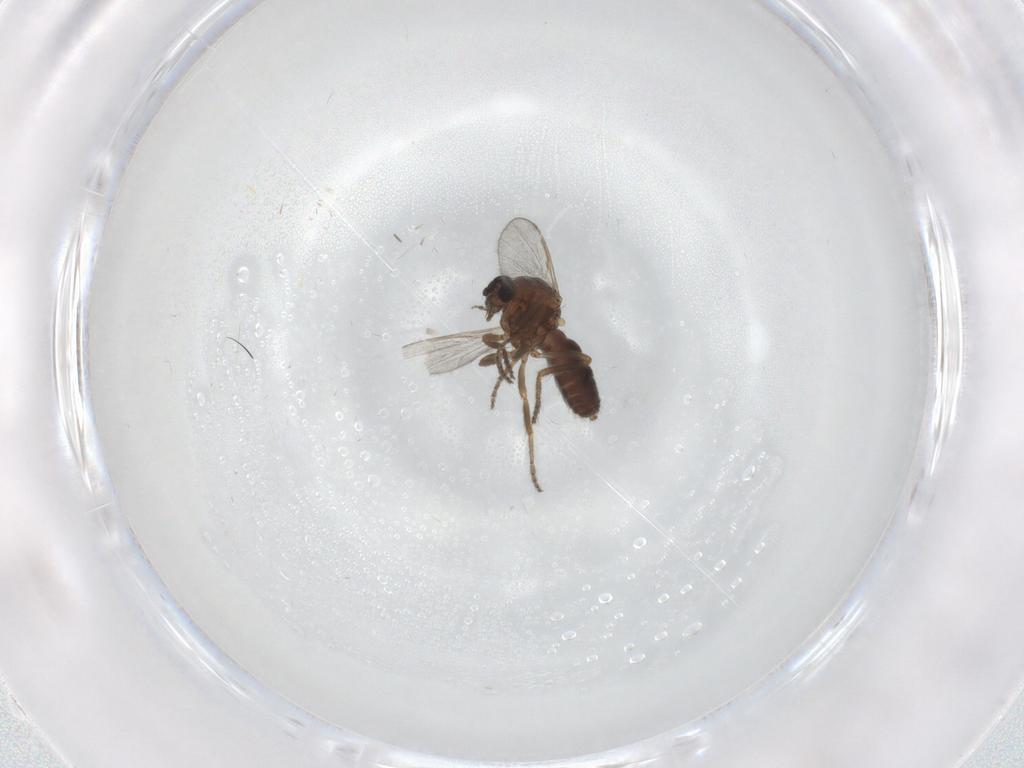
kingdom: Animalia
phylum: Arthropoda
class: Insecta
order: Diptera
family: Ceratopogonidae
